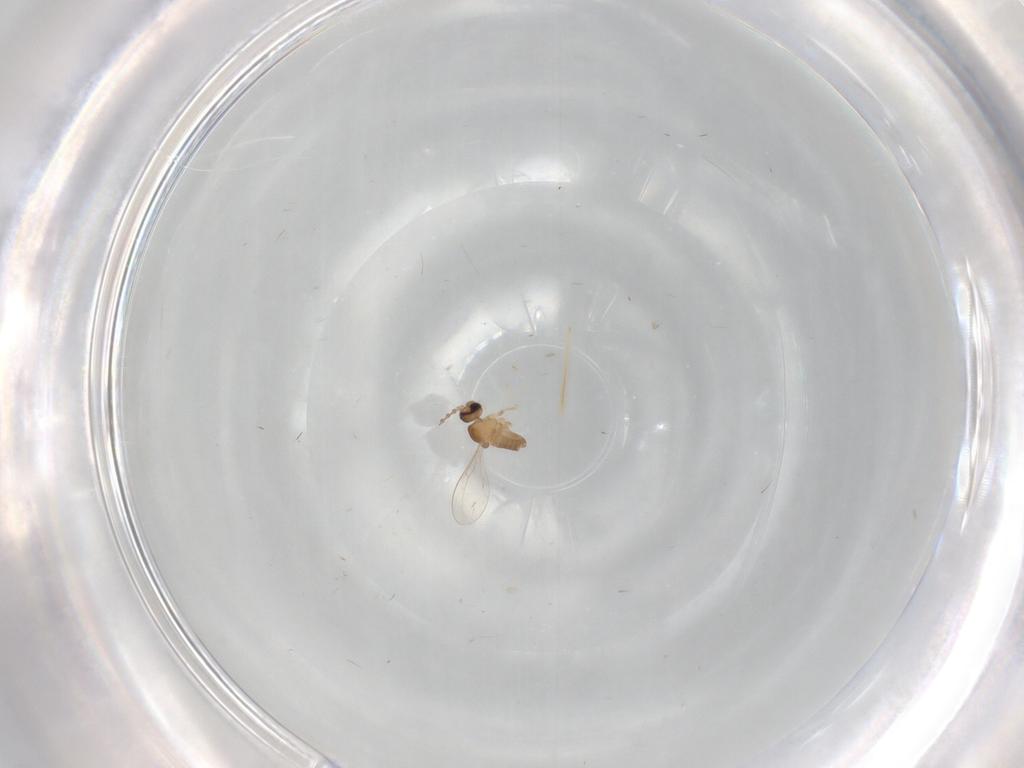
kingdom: Animalia
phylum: Arthropoda
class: Insecta
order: Diptera
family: Cecidomyiidae
